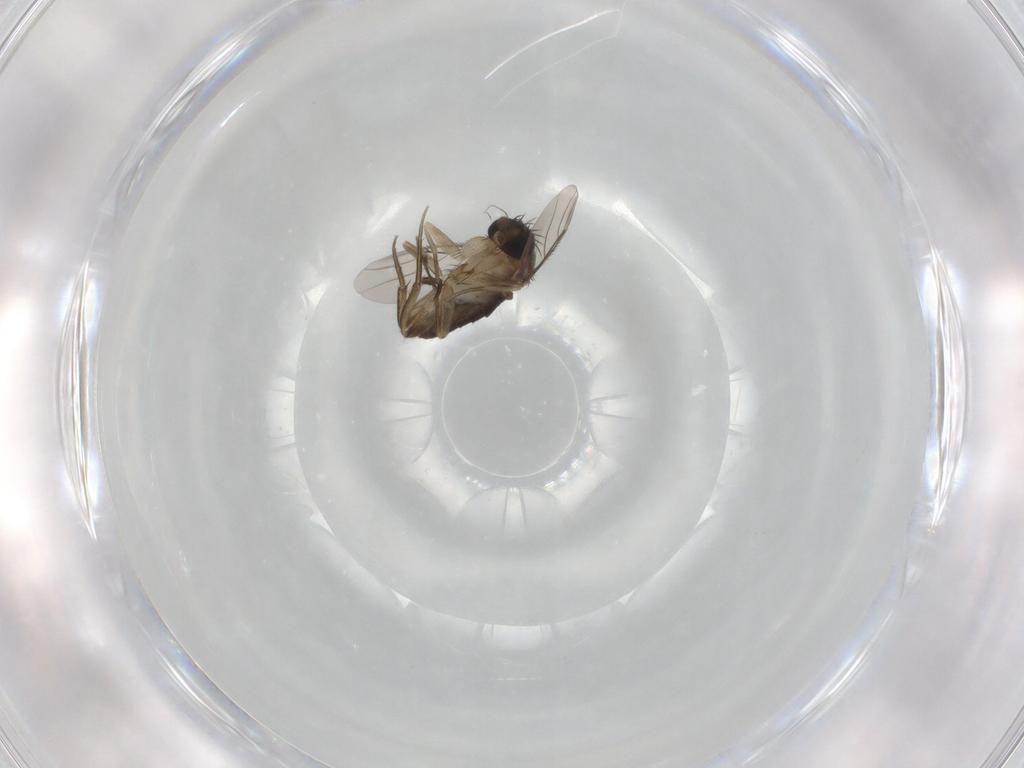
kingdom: Animalia
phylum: Arthropoda
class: Insecta
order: Diptera
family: Phoridae
